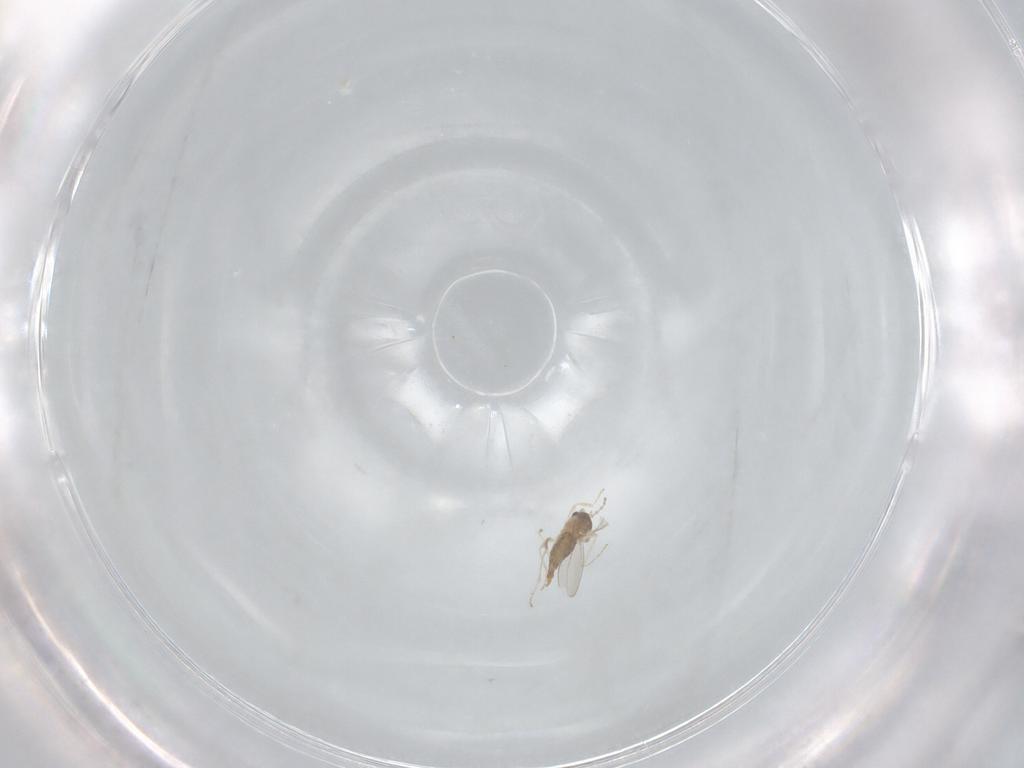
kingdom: Animalia
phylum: Arthropoda
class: Insecta
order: Diptera
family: Cecidomyiidae
